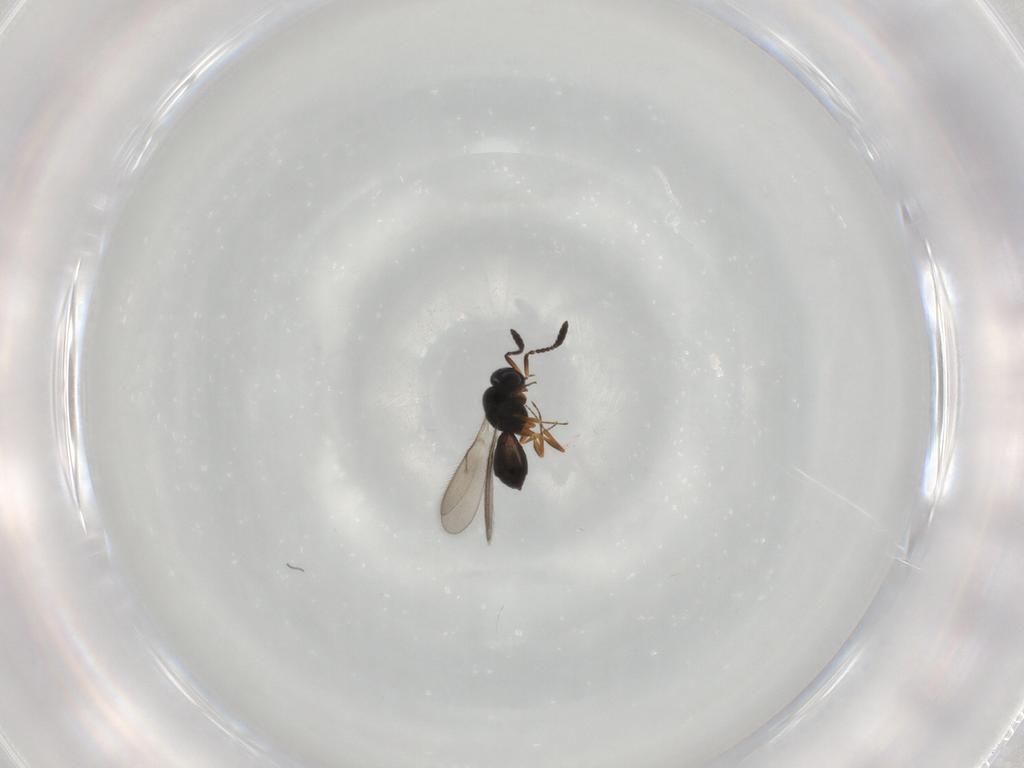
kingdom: Animalia
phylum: Arthropoda
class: Insecta
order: Hymenoptera
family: Scelionidae
